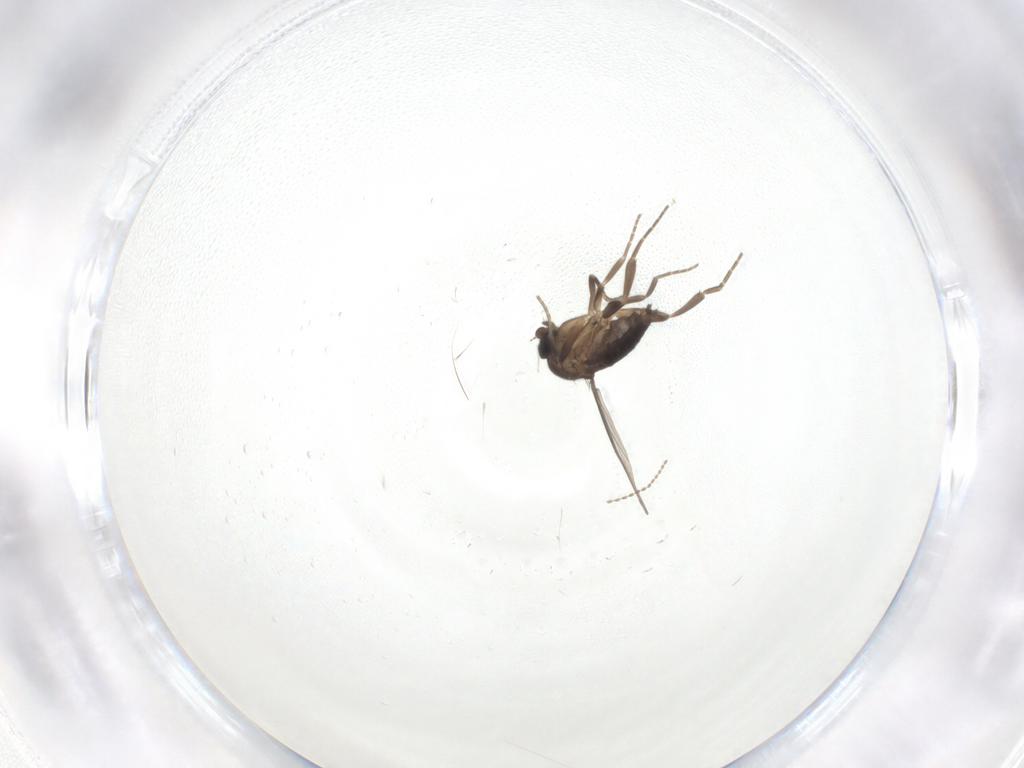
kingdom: Animalia
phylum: Arthropoda
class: Insecta
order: Diptera
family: Phoridae
